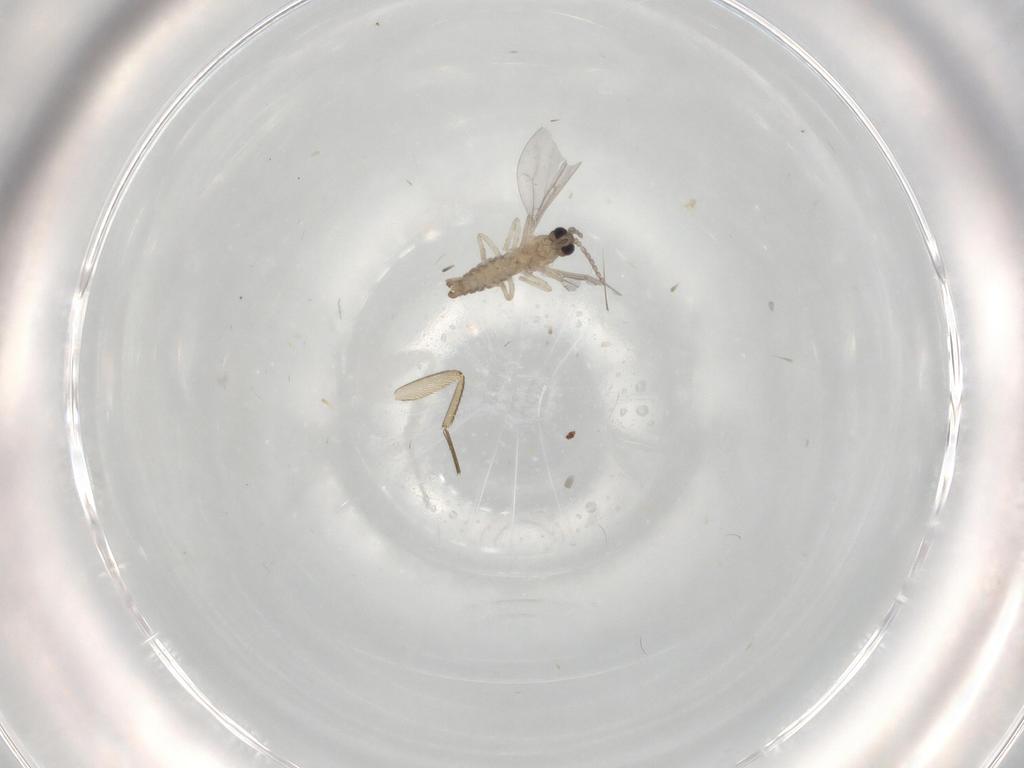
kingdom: Animalia
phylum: Arthropoda
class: Insecta
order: Diptera
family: Cecidomyiidae
